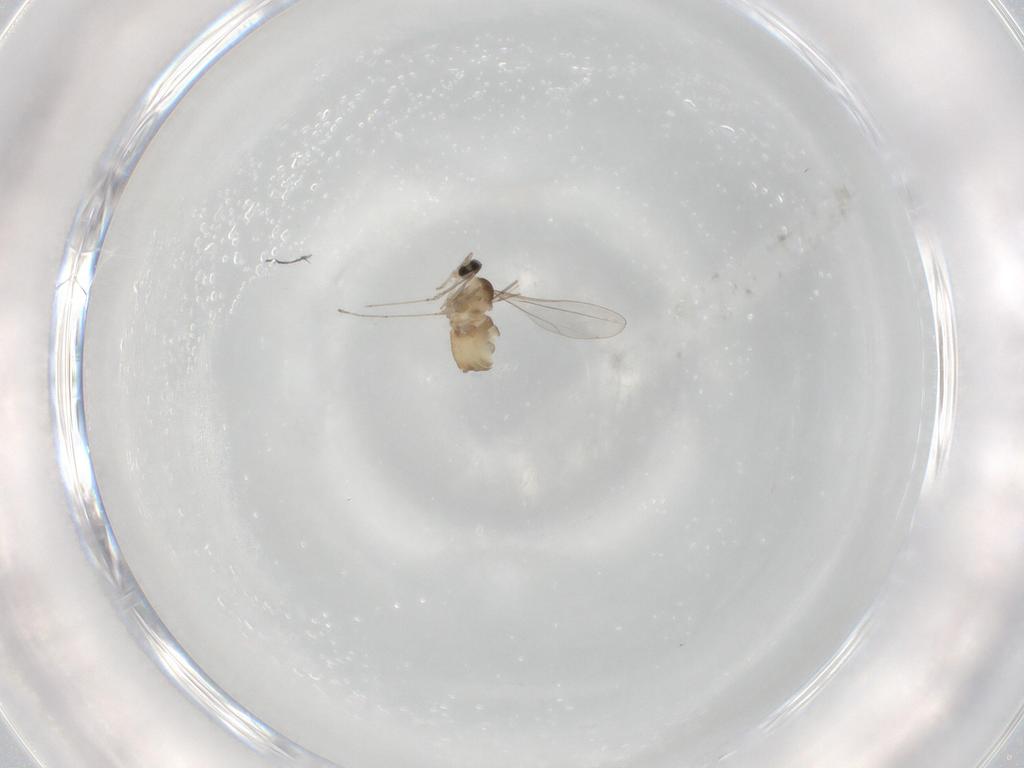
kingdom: Animalia
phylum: Arthropoda
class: Insecta
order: Diptera
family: Cecidomyiidae
